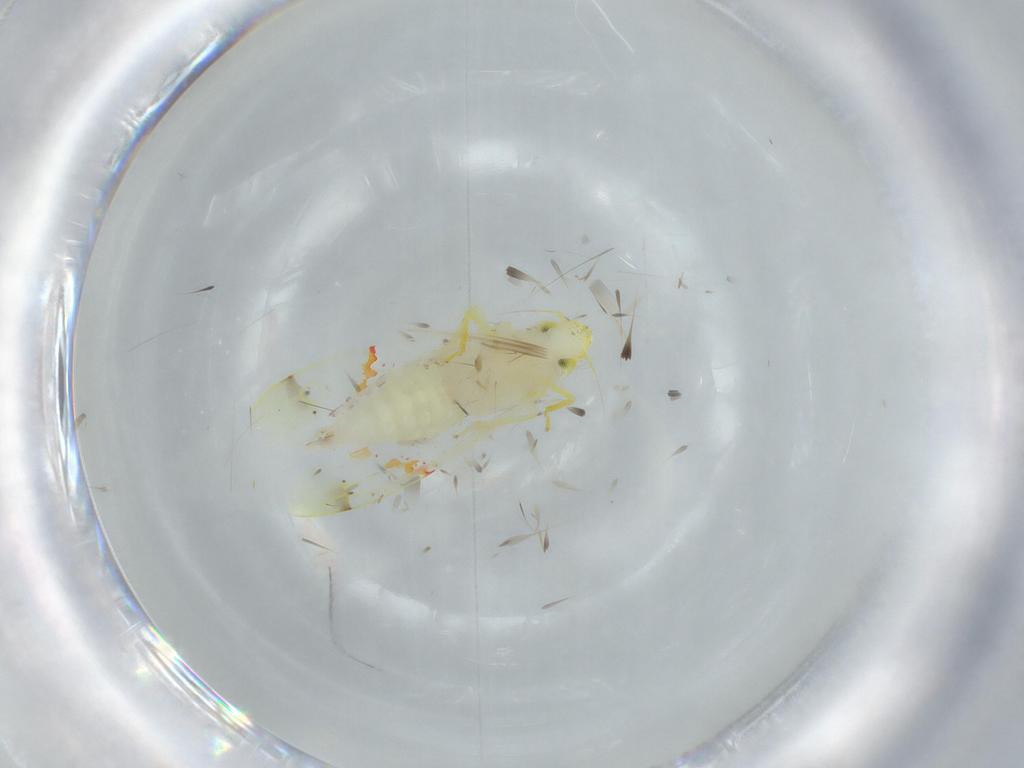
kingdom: Animalia
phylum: Arthropoda
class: Insecta
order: Hemiptera
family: Cicadellidae
